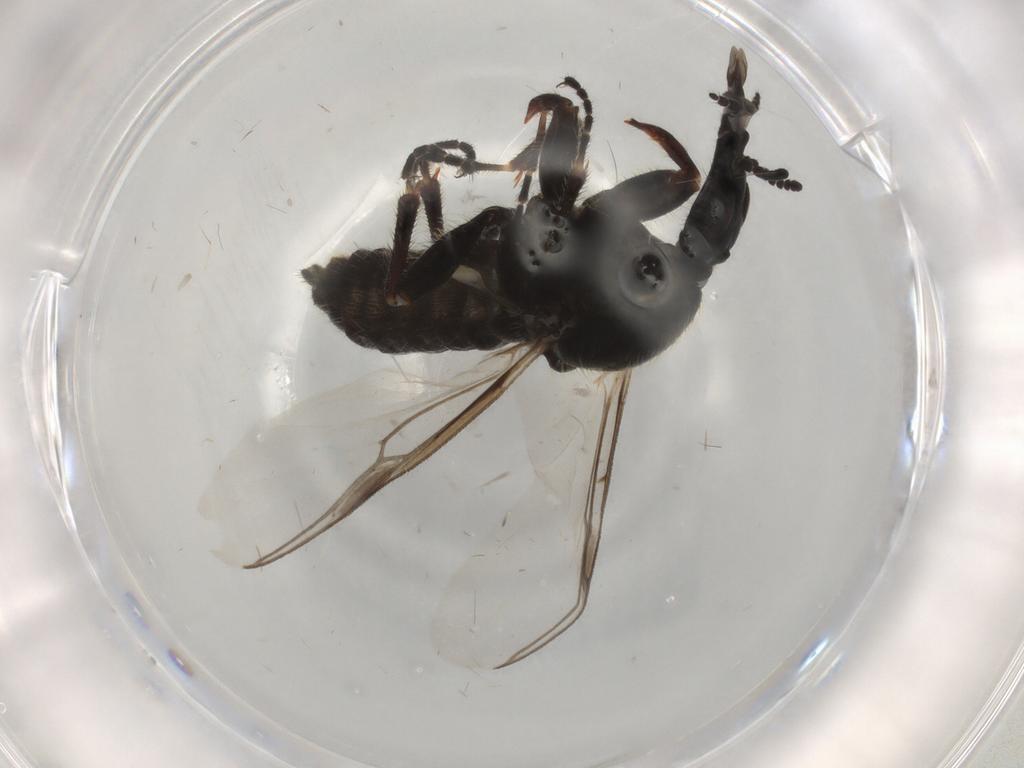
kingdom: Animalia
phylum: Arthropoda
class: Insecta
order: Diptera
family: Bibionidae
